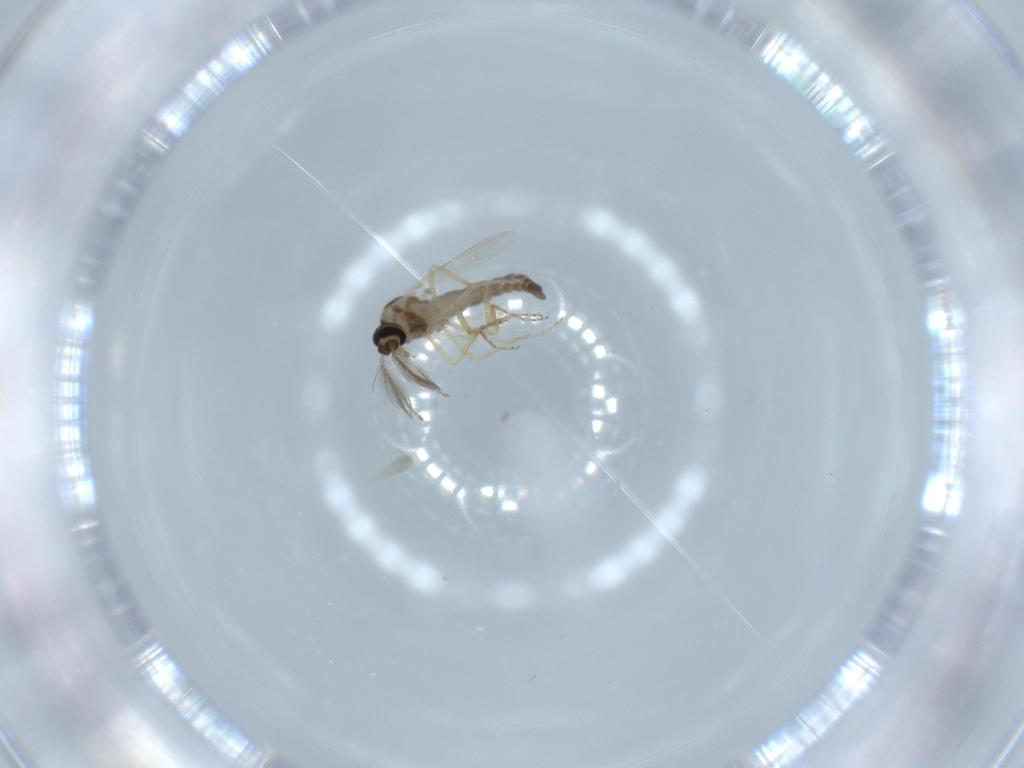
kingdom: Animalia
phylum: Arthropoda
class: Insecta
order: Diptera
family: Ceratopogonidae
